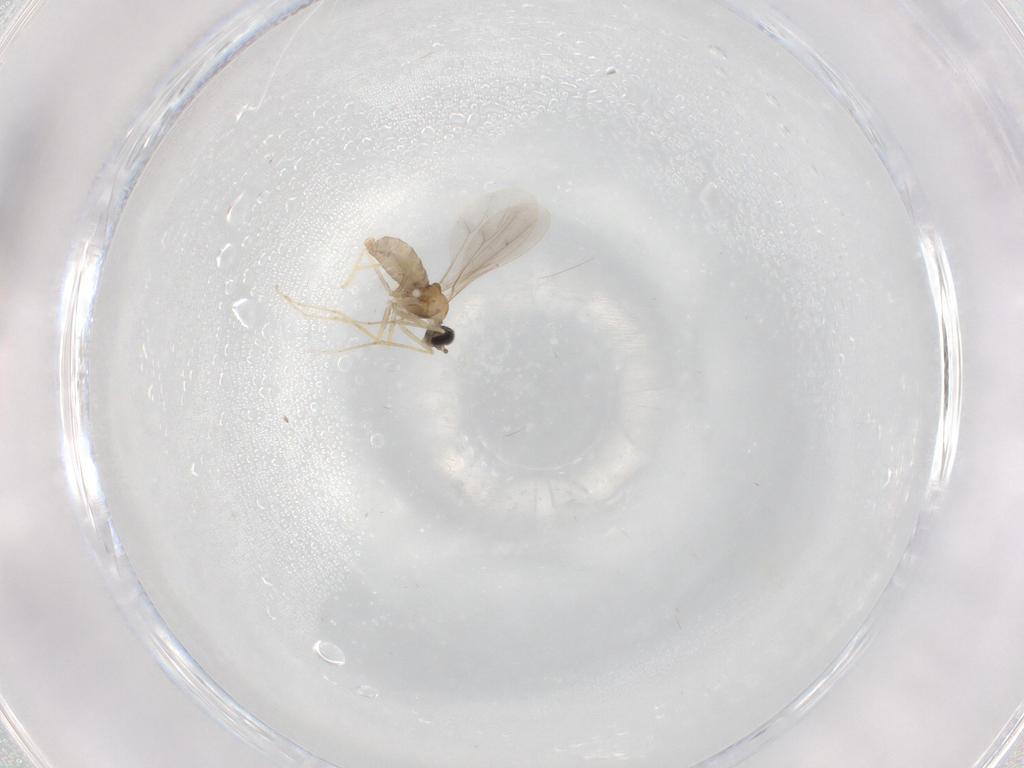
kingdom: Animalia
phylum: Arthropoda
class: Insecta
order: Diptera
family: Cecidomyiidae
